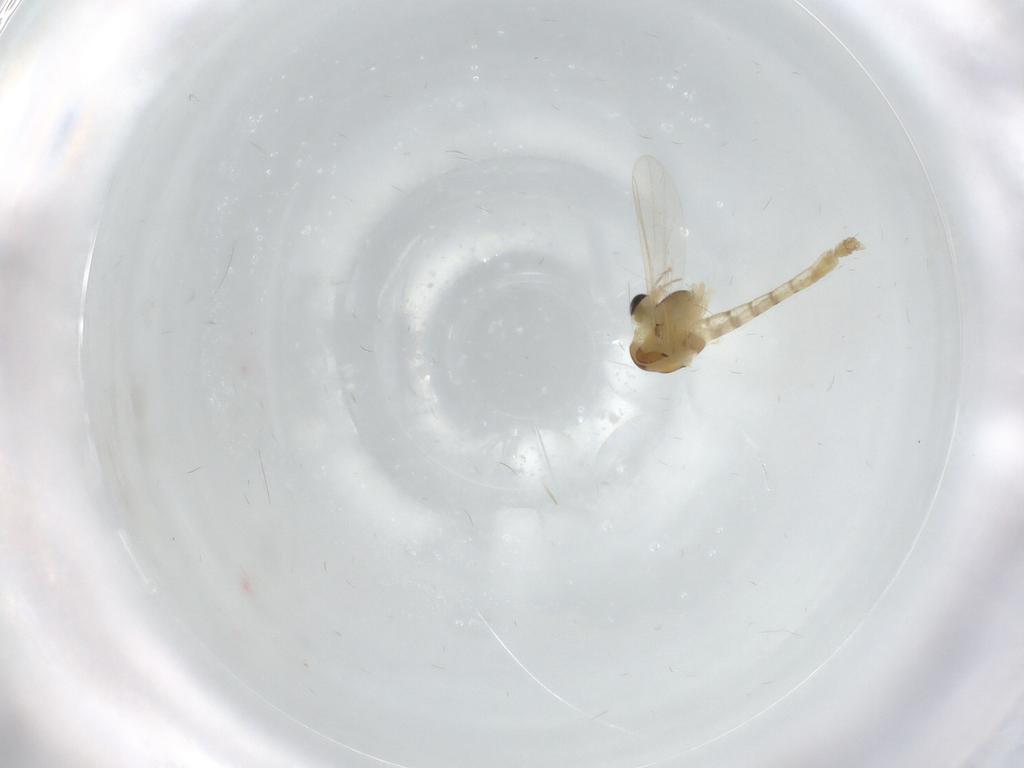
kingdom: Animalia
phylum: Arthropoda
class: Insecta
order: Diptera
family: Chironomidae
